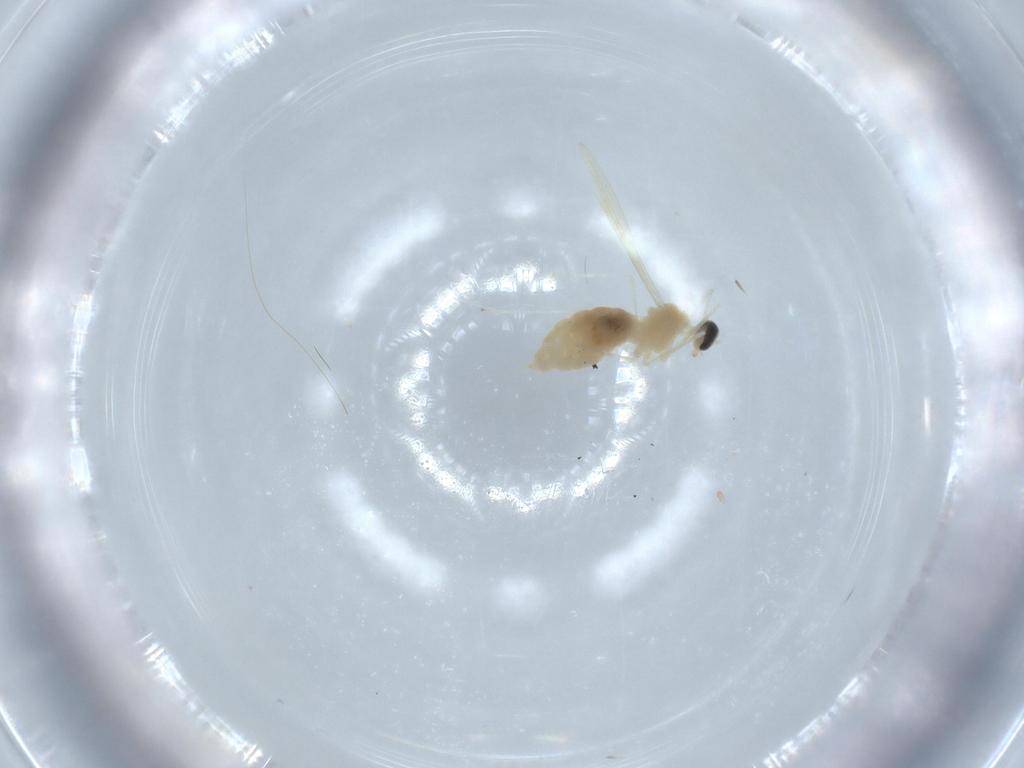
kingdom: Animalia
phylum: Arthropoda
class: Insecta
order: Diptera
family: Cecidomyiidae
